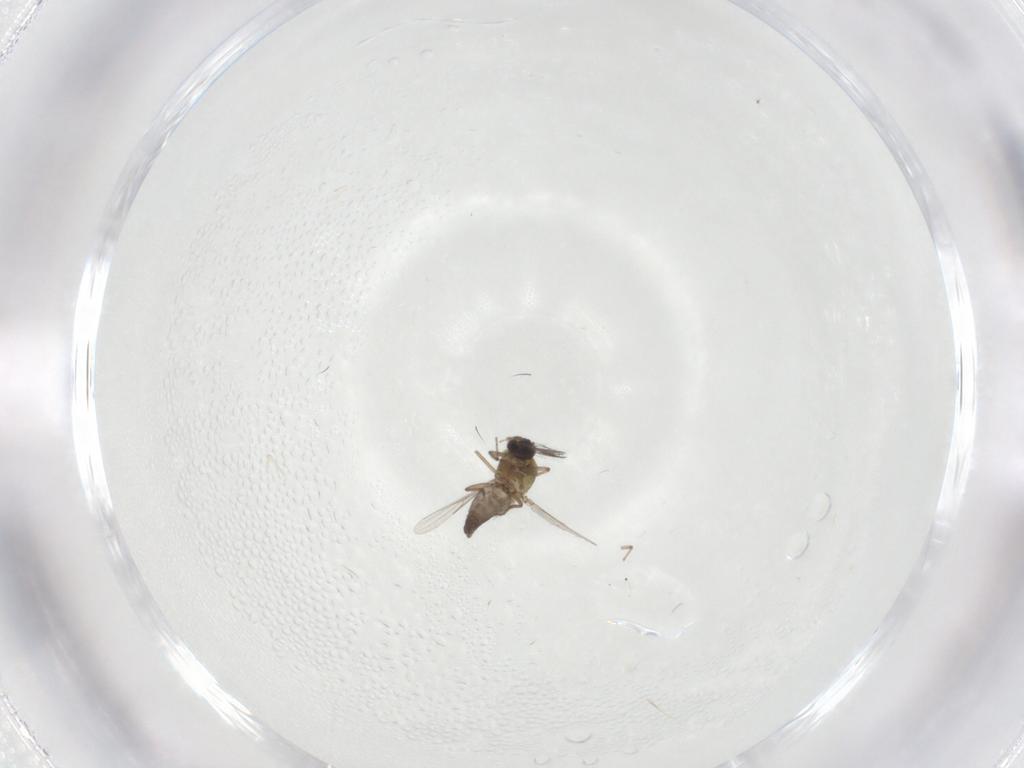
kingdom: Animalia
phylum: Arthropoda
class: Insecta
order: Diptera
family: Ceratopogonidae
